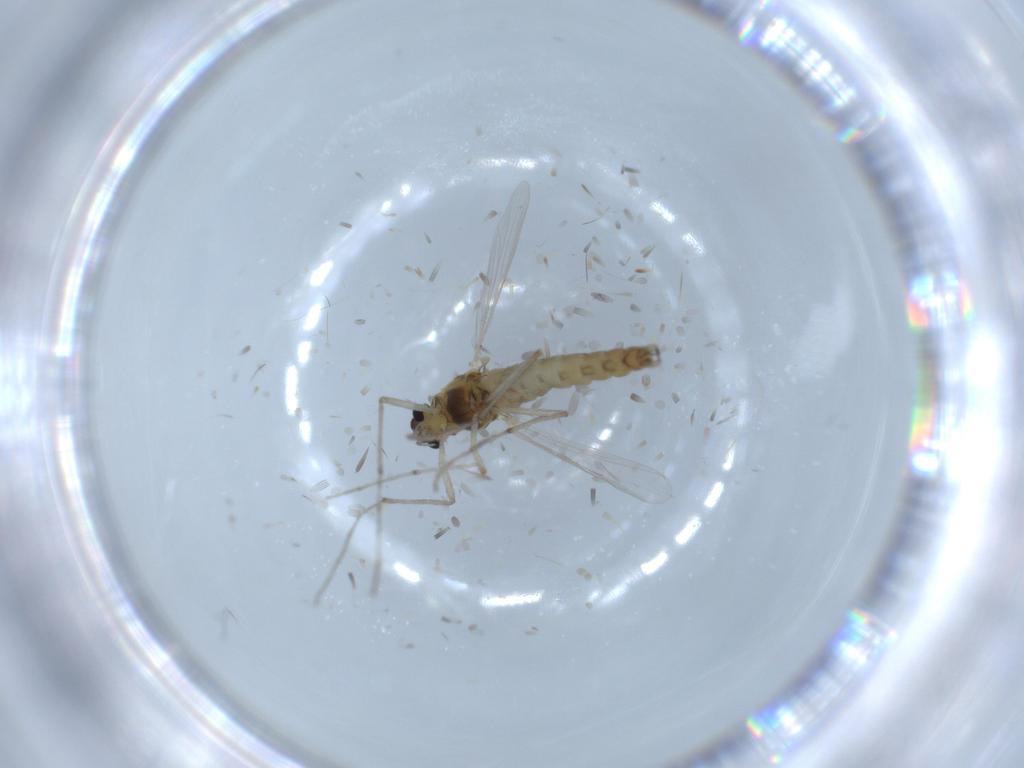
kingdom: Animalia
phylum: Arthropoda
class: Insecta
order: Diptera
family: Chironomidae
